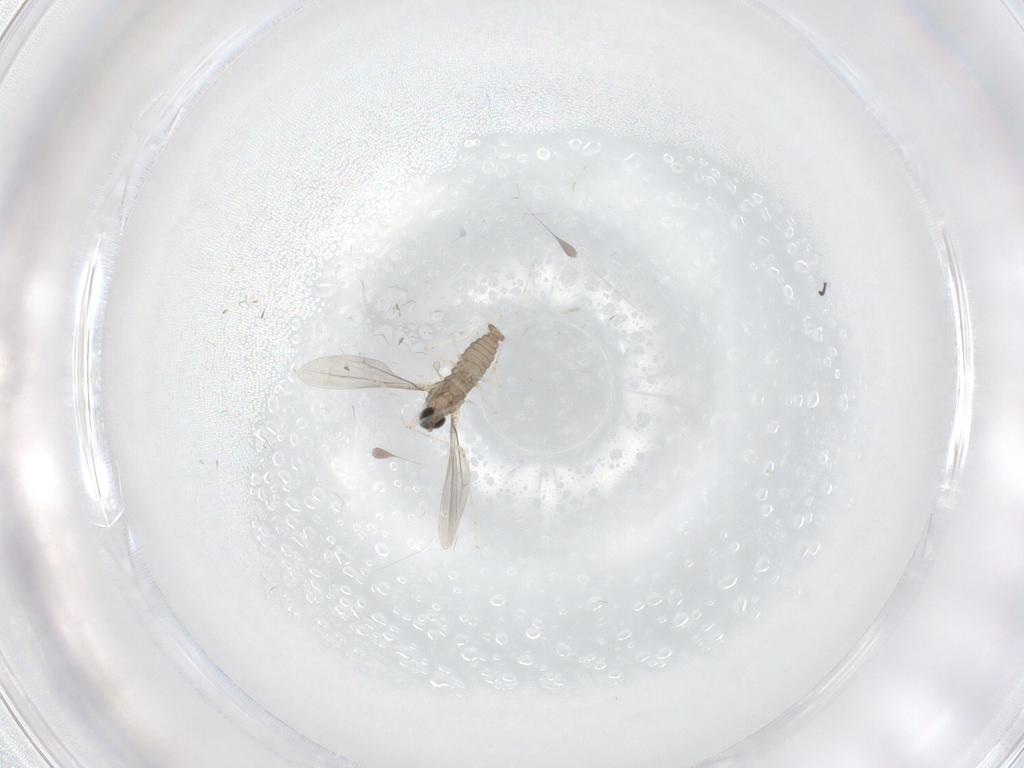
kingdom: Animalia
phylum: Arthropoda
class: Insecta
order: Diptera
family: Cecidomyiidae
